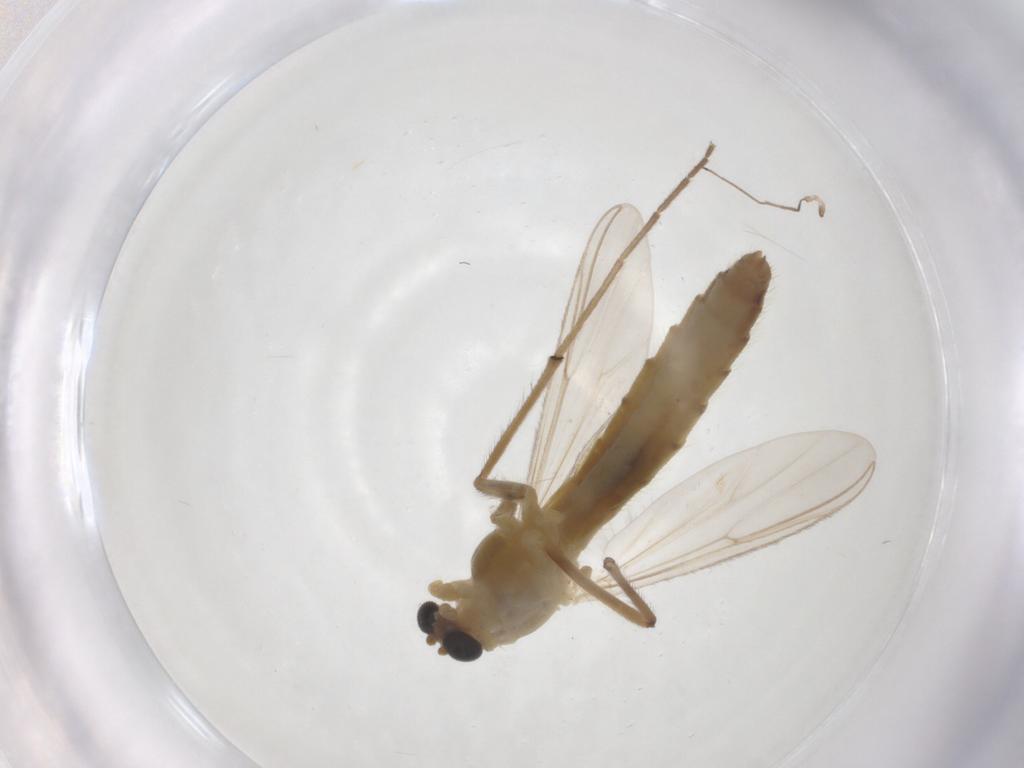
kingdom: Animalia
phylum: Arthropoda
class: Insecta
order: Diptera
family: Chironomidae
